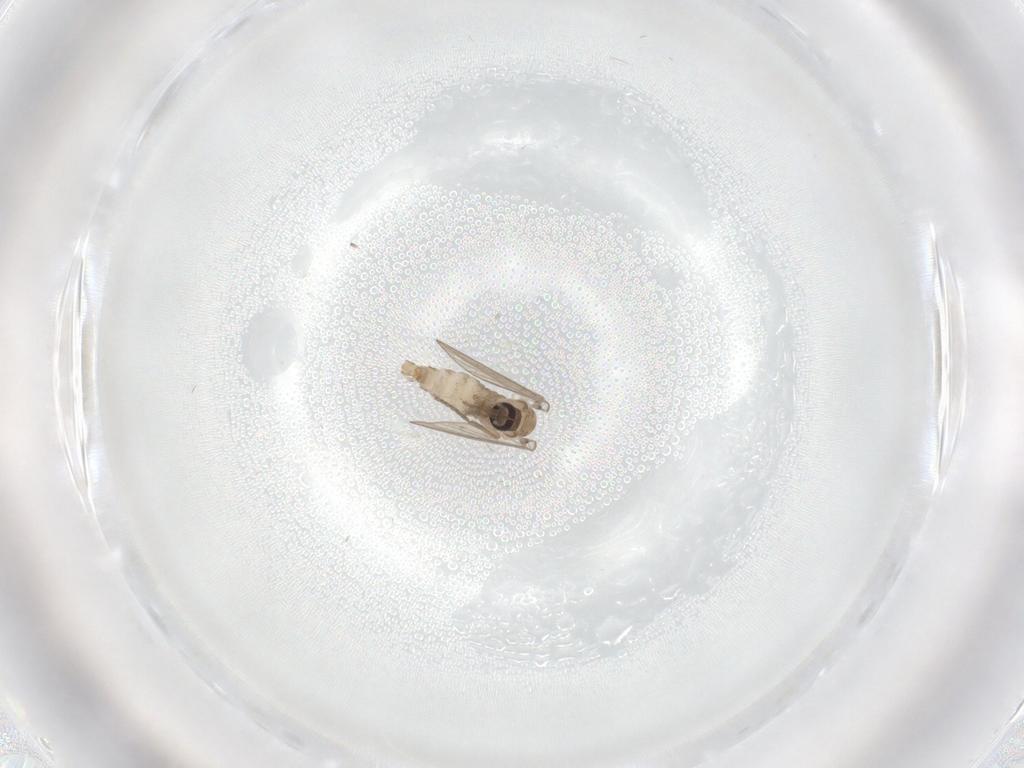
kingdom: Animalia
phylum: Arthropoda
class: Insecta
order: Diptera
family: Psychodidae
